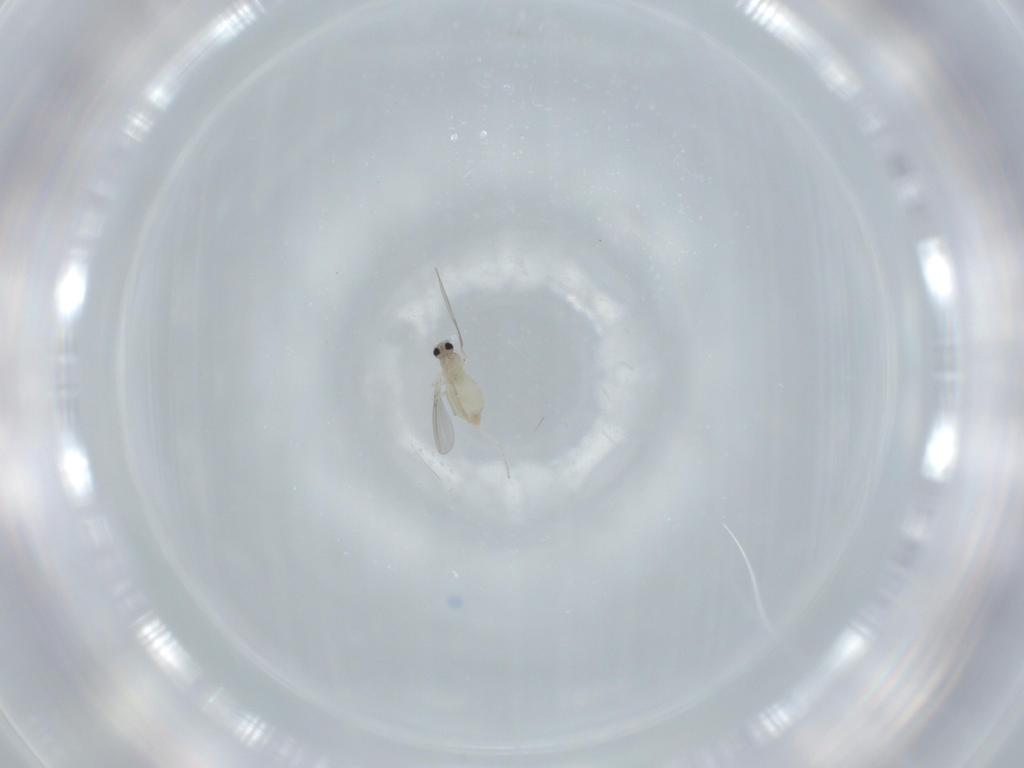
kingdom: Animalia
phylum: Arthropoda
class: Insecta
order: Diptera
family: Cecidomyiidae
